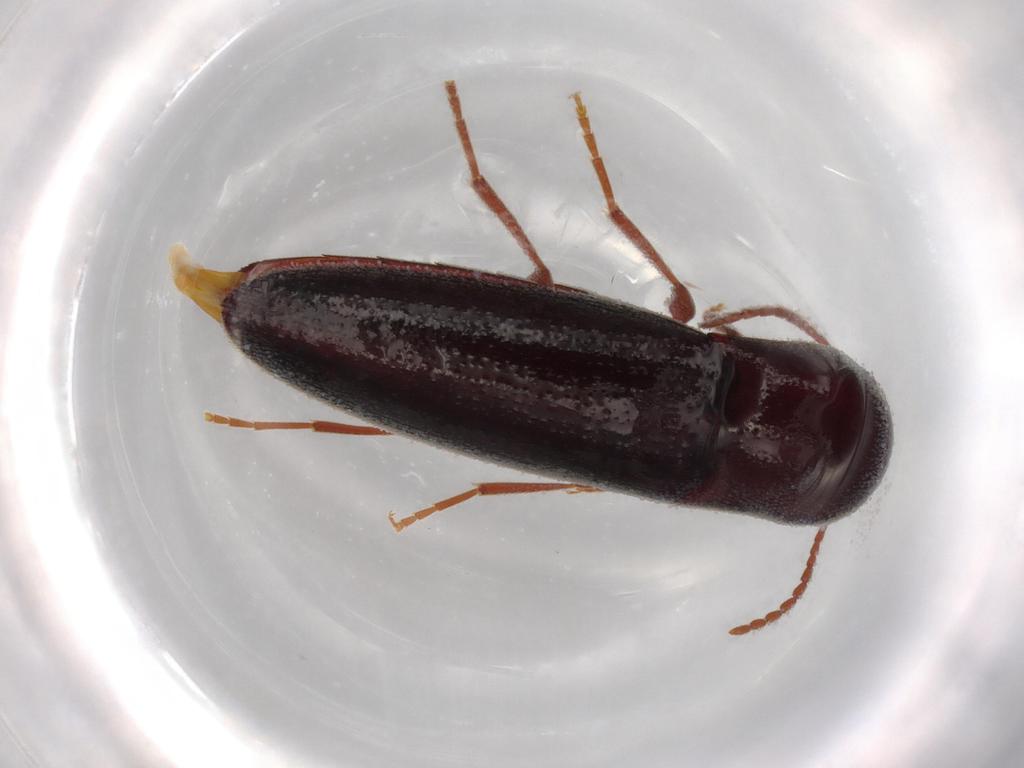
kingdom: Animalia
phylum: Arthropoda
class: Insecta
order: Coleoptera
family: Eucnemidae
